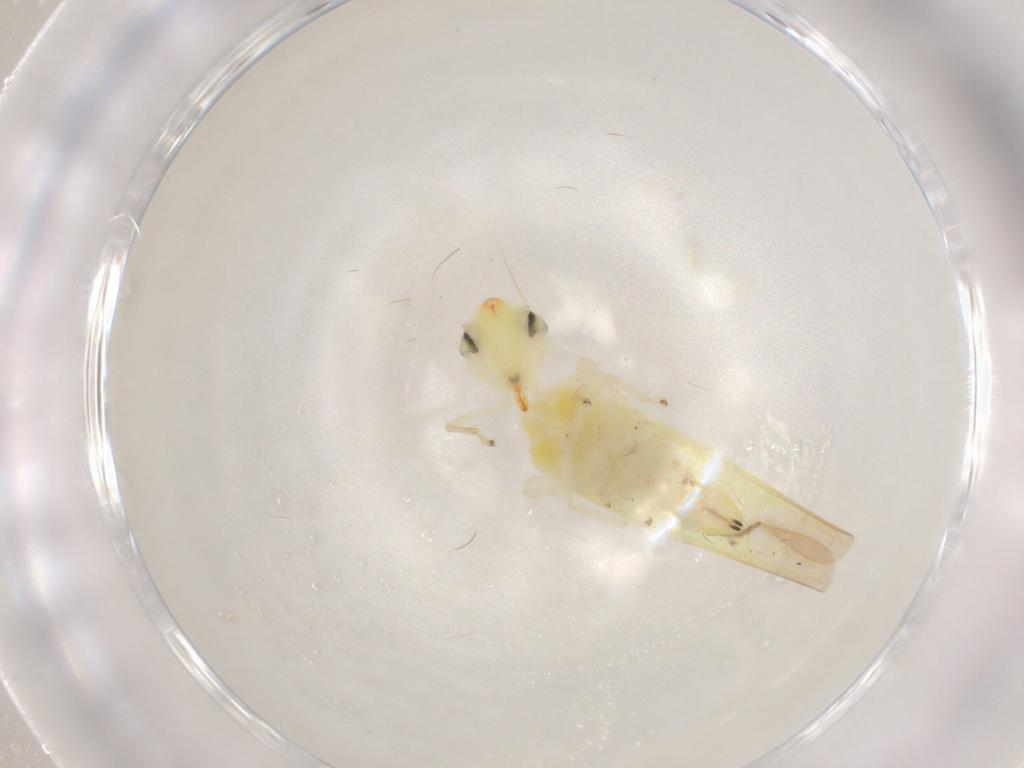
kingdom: Animalia
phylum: Arthropoda
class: Insecta
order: Hemiptera
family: Cicadellidae
